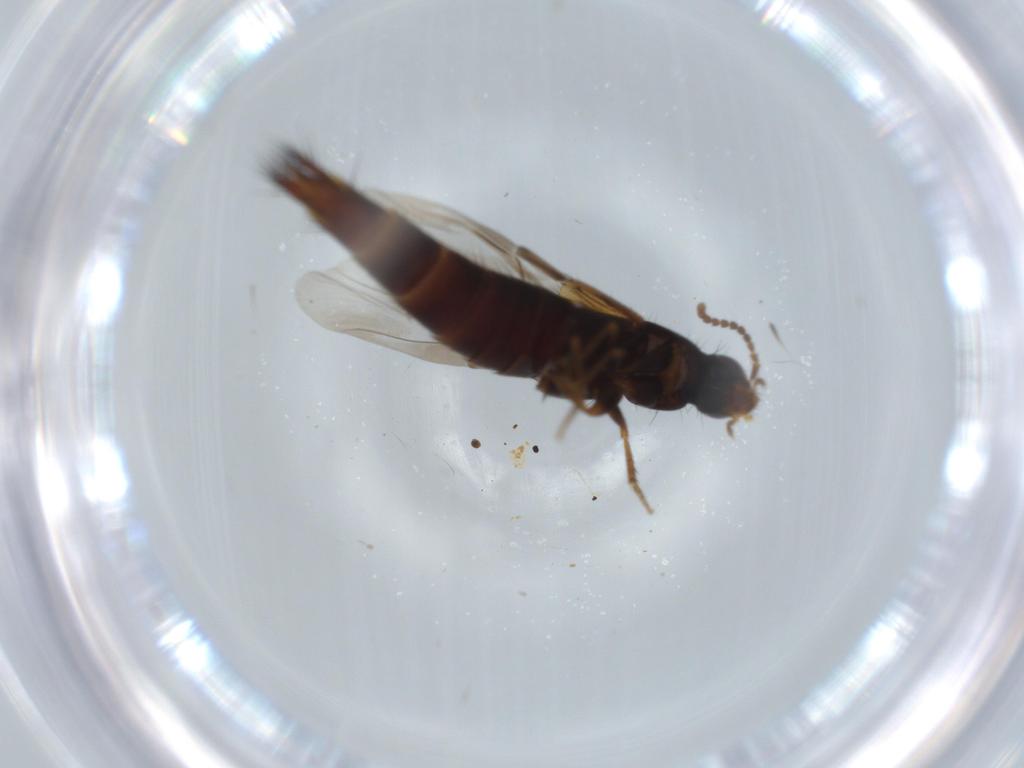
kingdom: Animalia
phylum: Arthropoda
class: Insecta
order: Coleoptera
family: Staphylinidae
